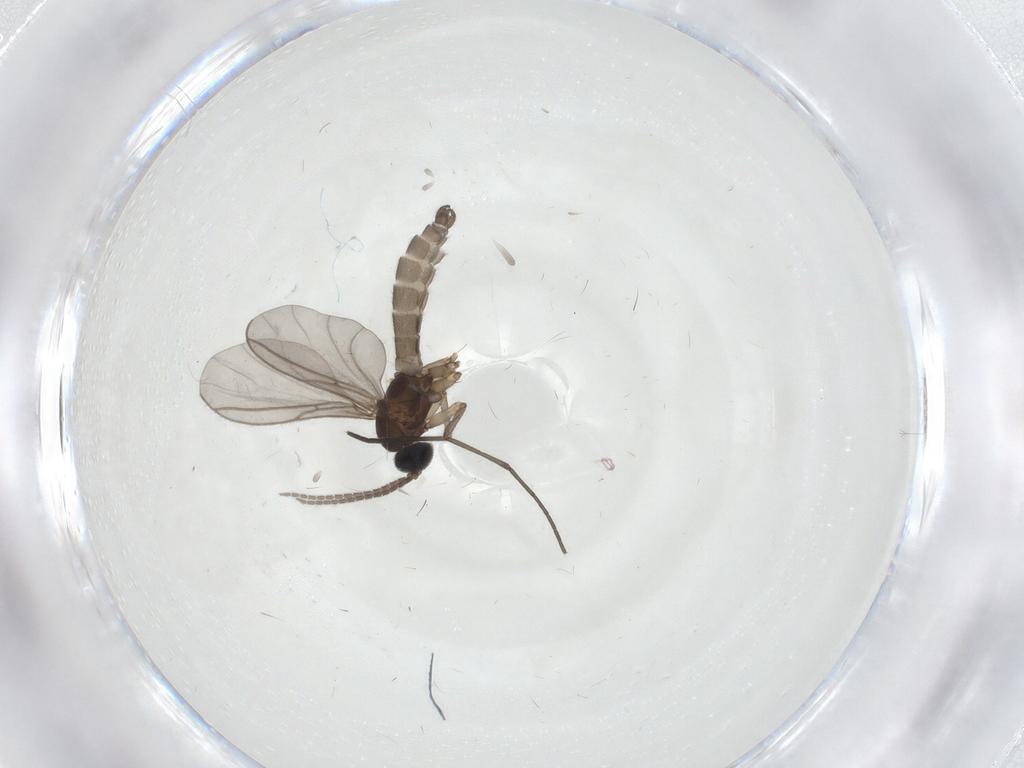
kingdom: Animalia
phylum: Arthropoda
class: Insecta
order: Diptera
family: Sciaridae
